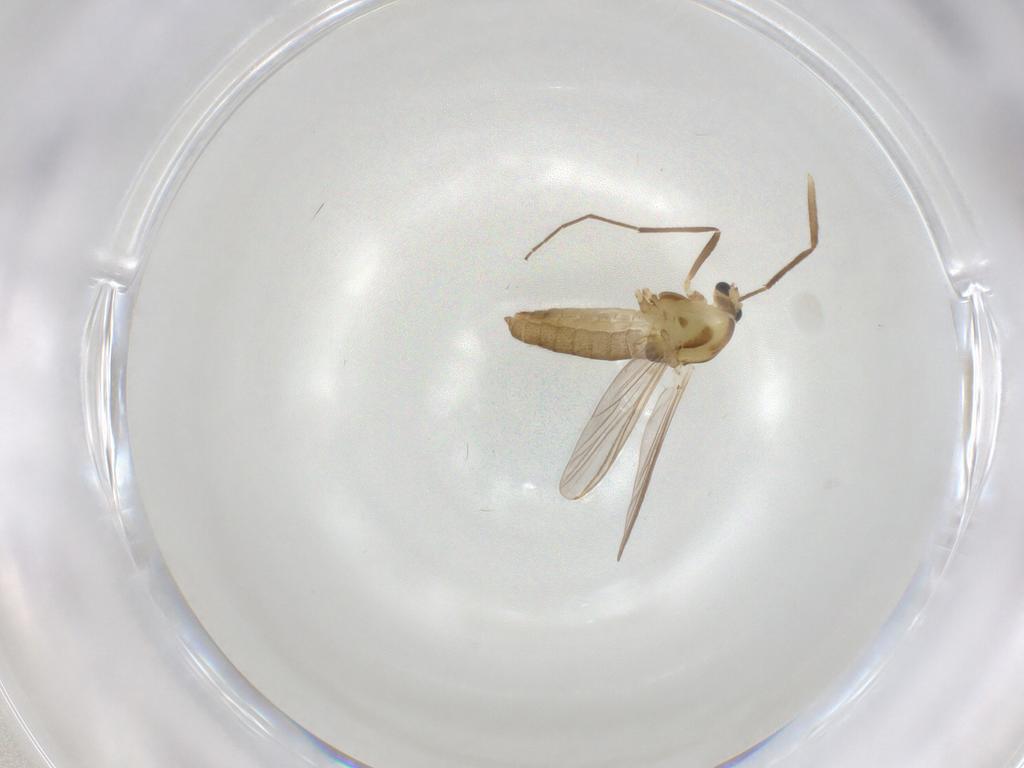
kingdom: Animalia
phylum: Arthropoda
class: Insecta
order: Diptera
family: Chironomidae
